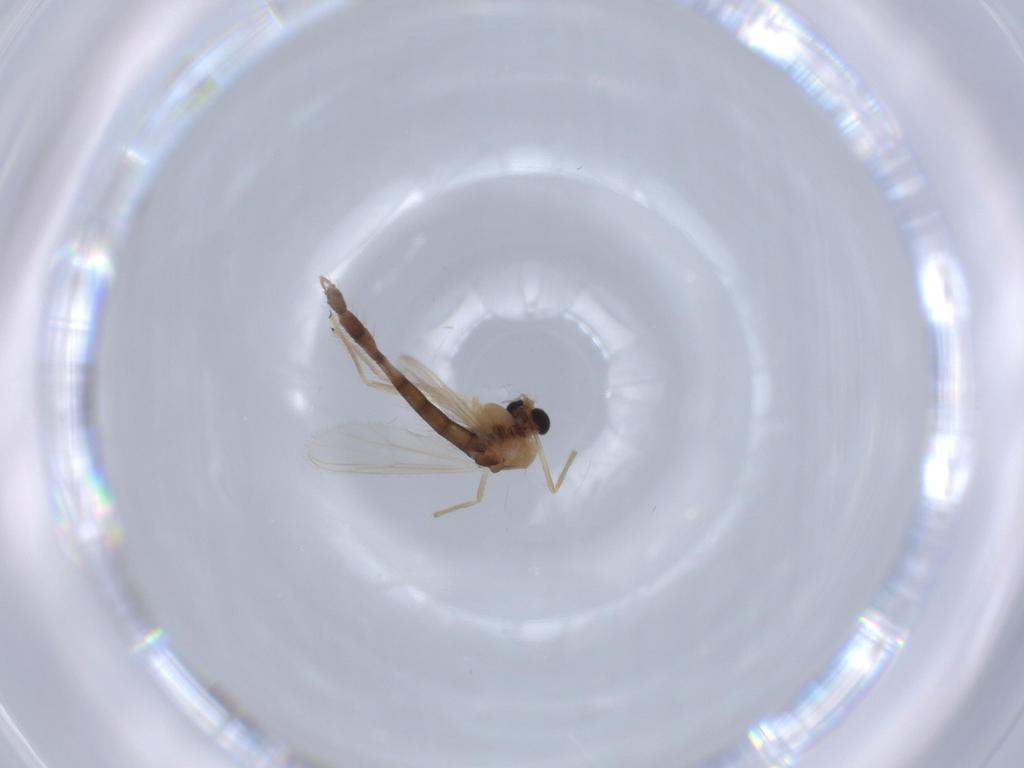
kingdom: Animalia
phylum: Arthropoda
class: Insecta
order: Diptera
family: Chironomidae
